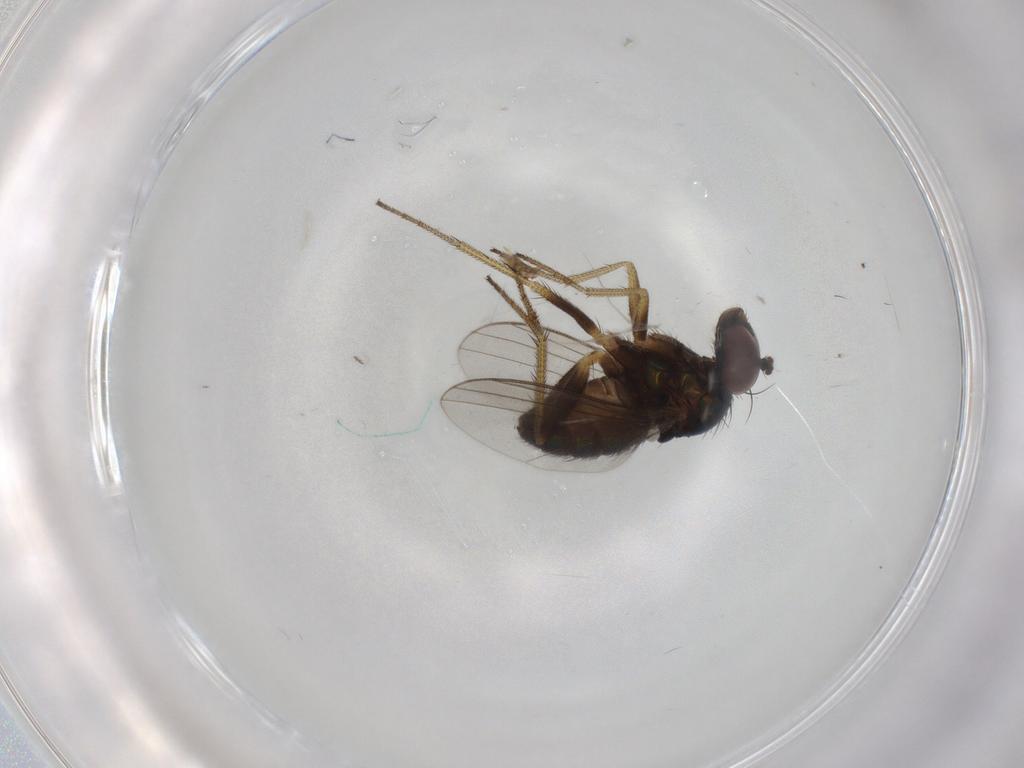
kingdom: Animalia
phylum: Arthropoda
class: Insecta
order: Diptera
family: Dolichopodidae
